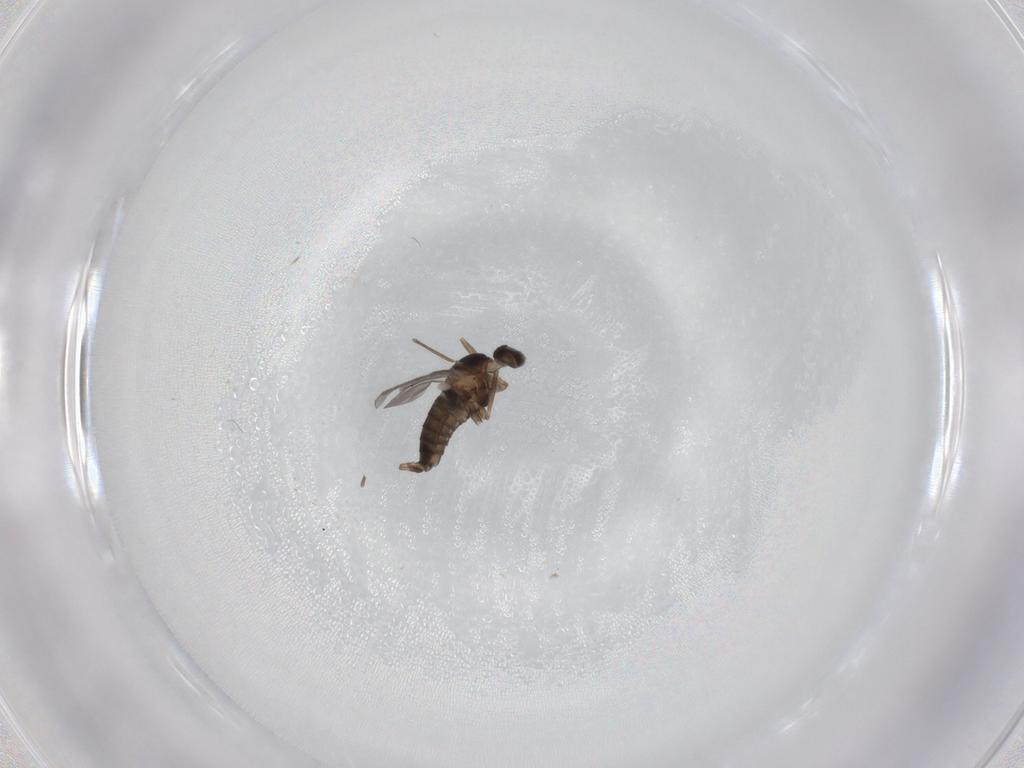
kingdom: Animalia
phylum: Arthropoda
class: Insecta
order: Diptera
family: Cecidomyiidae
